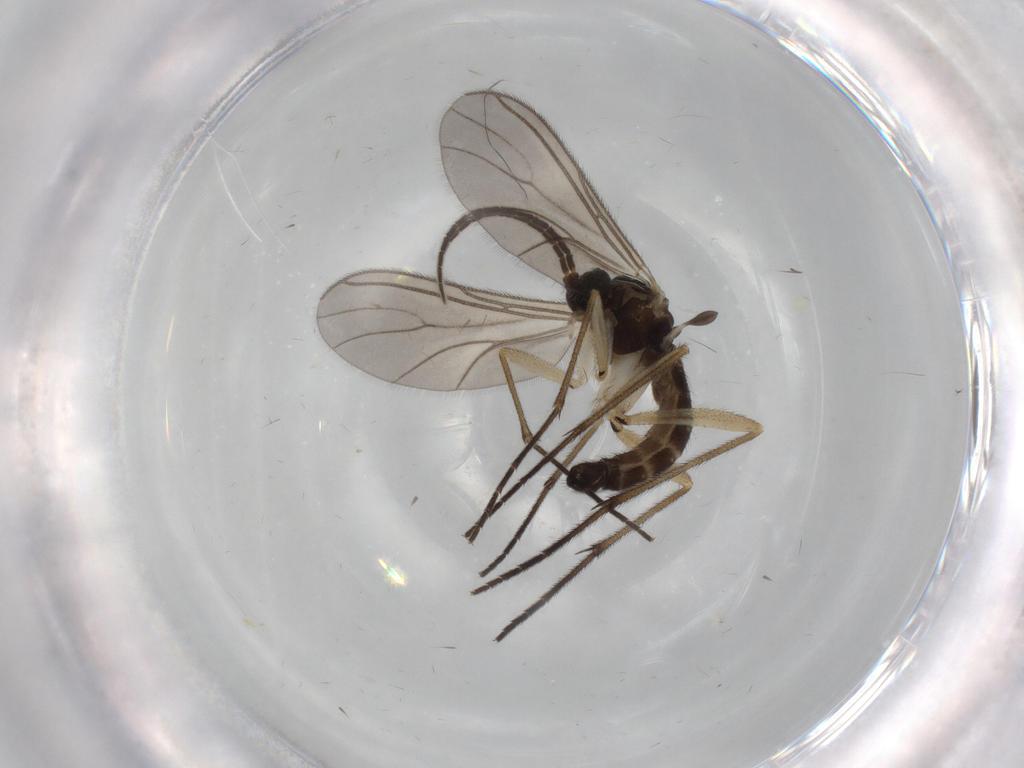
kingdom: Animalia
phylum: Arthropoda
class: Insecta
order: Diptera
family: Sciaridae
